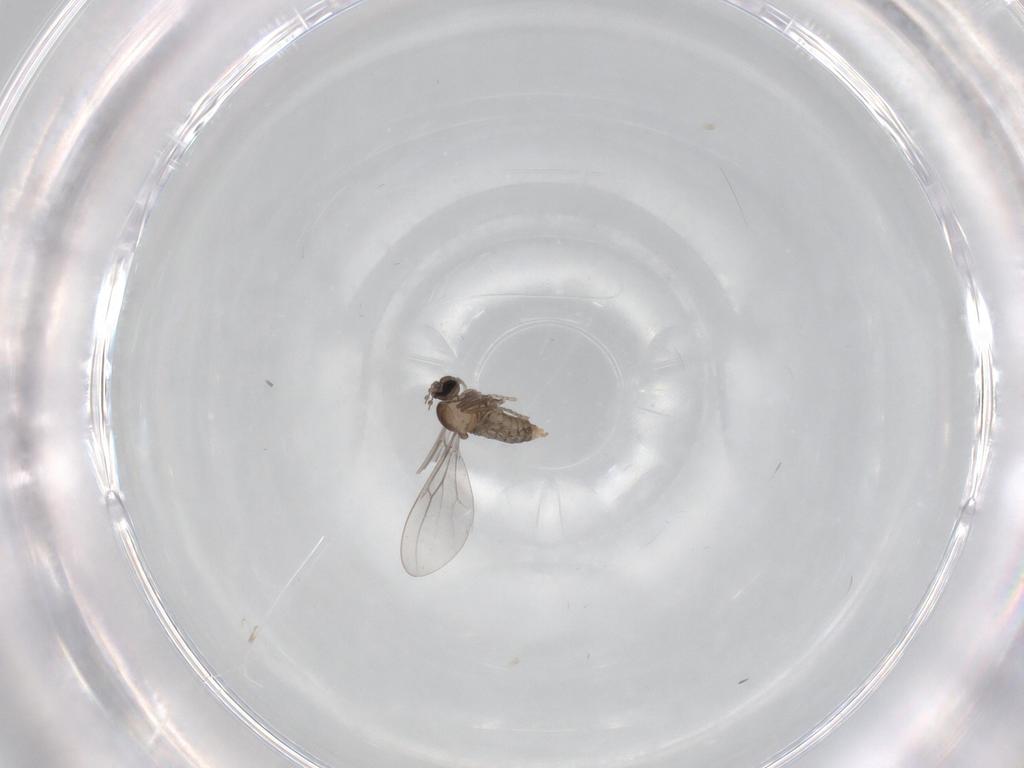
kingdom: Animalia
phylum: Arthropoda
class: Insecta
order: Diptera
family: Cecidomyiidae
